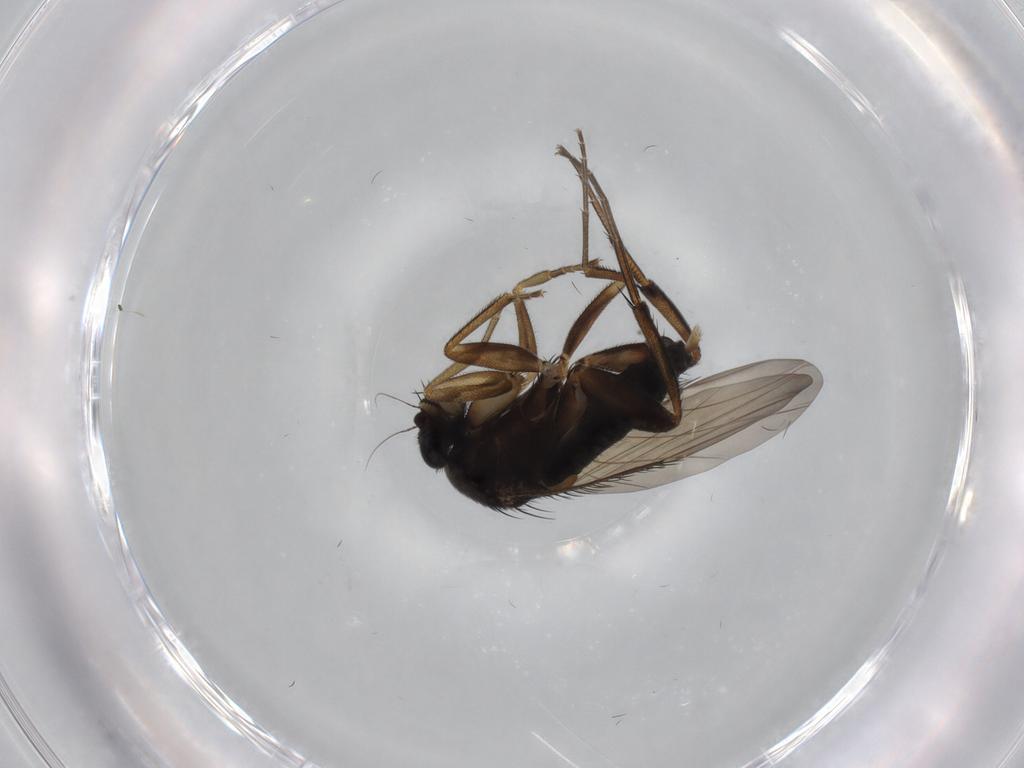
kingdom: Animalia
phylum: Arthropoda
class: Insecta
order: Diptera
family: Phoridae
